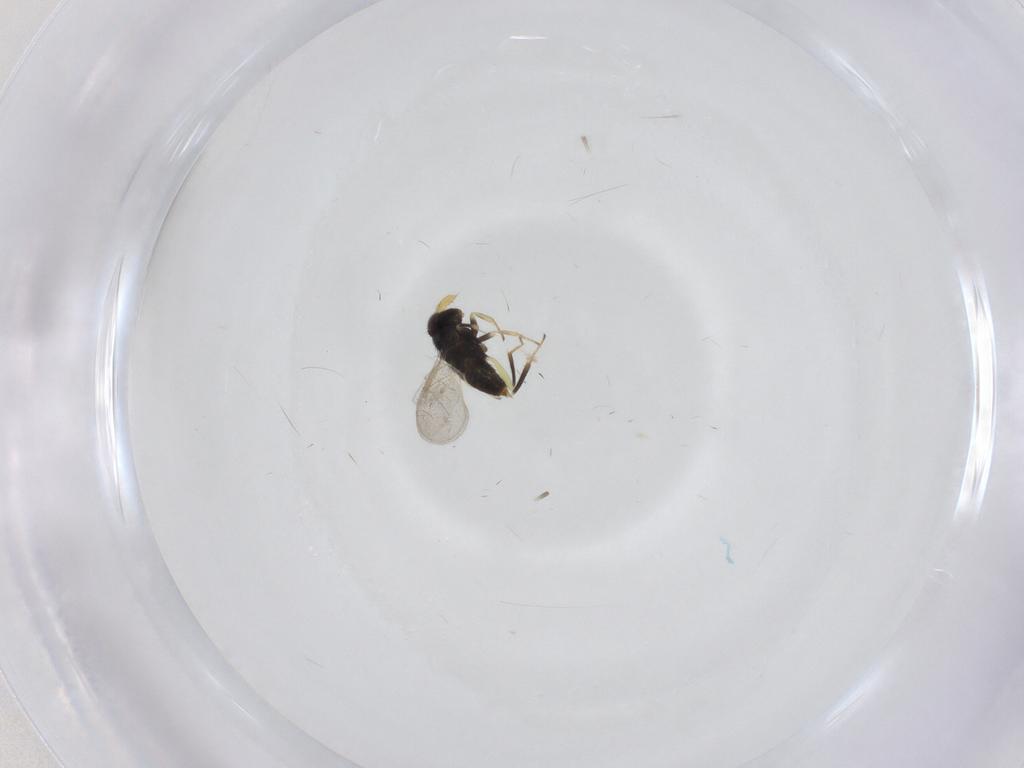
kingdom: Animalia
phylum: Arthropoda
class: Insecta
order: Hymenoptera
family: Aphelinidae
